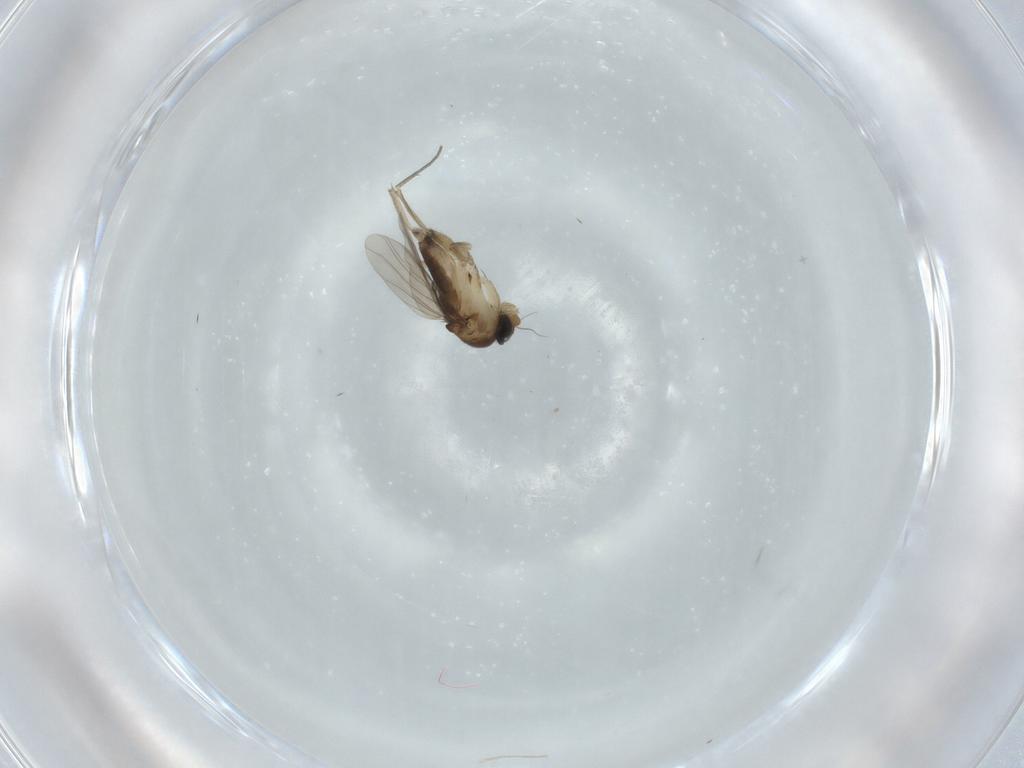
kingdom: Animalia
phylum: Arthropoda
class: Insecta
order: Diptera
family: Phoridae
